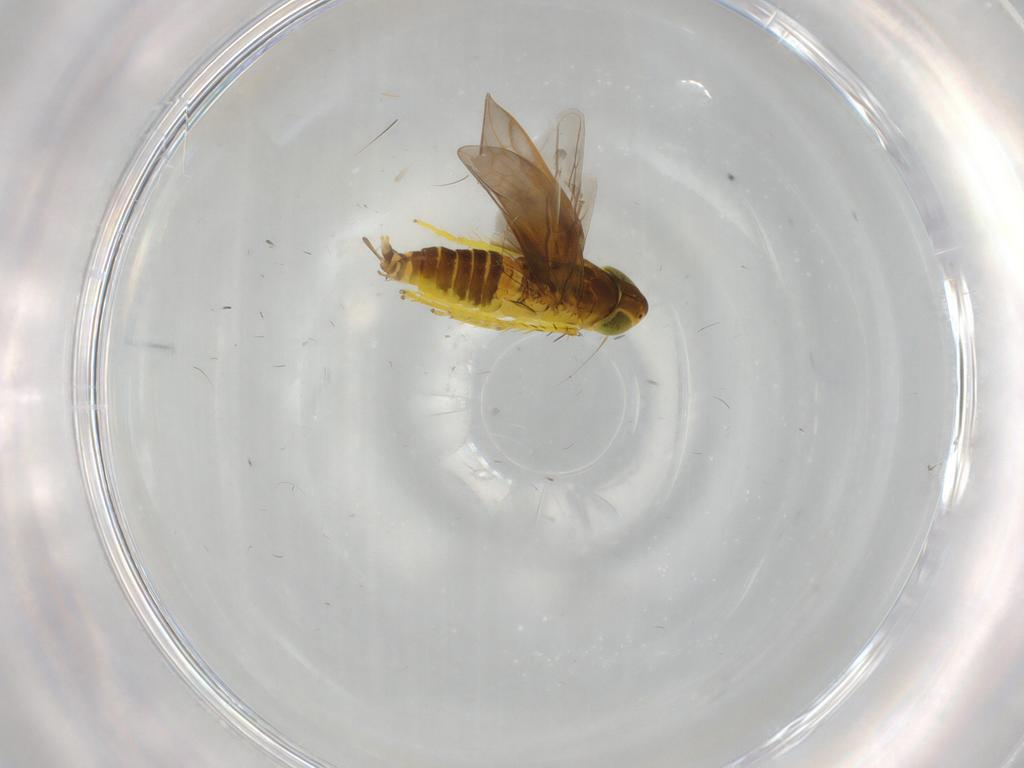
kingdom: Animalia
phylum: Arthropoda
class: Insecta
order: Hemiptera
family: Cicadellidae
